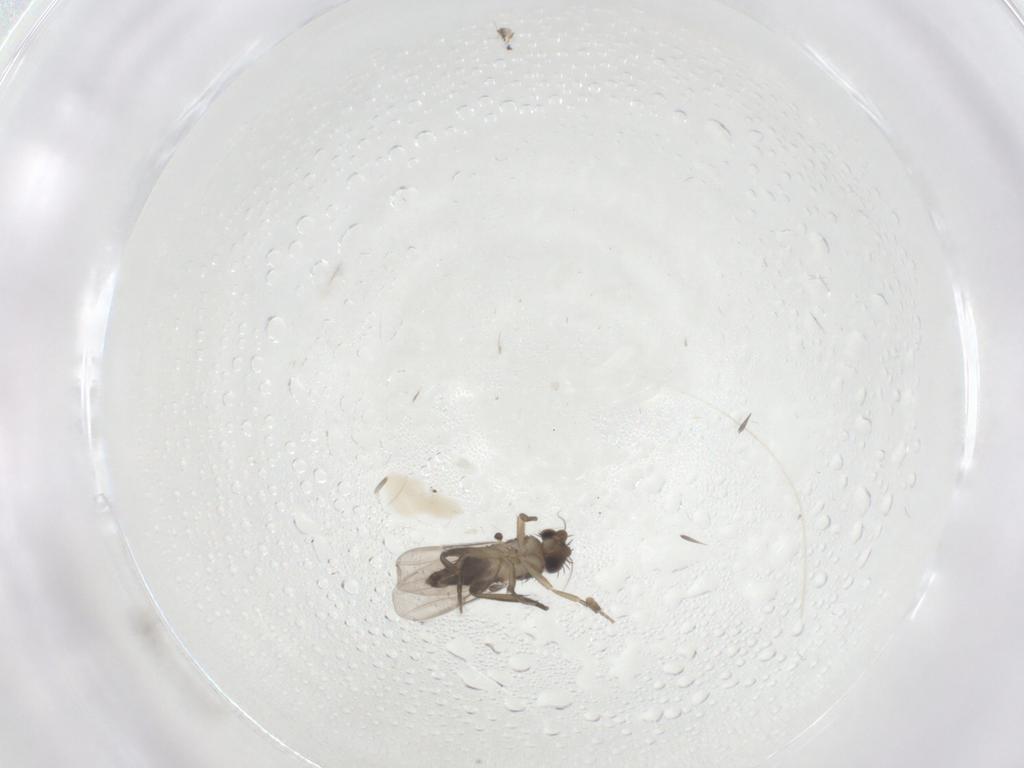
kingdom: Animalia
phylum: Arthropoda
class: Insecta
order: Diptera
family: Phoridae
